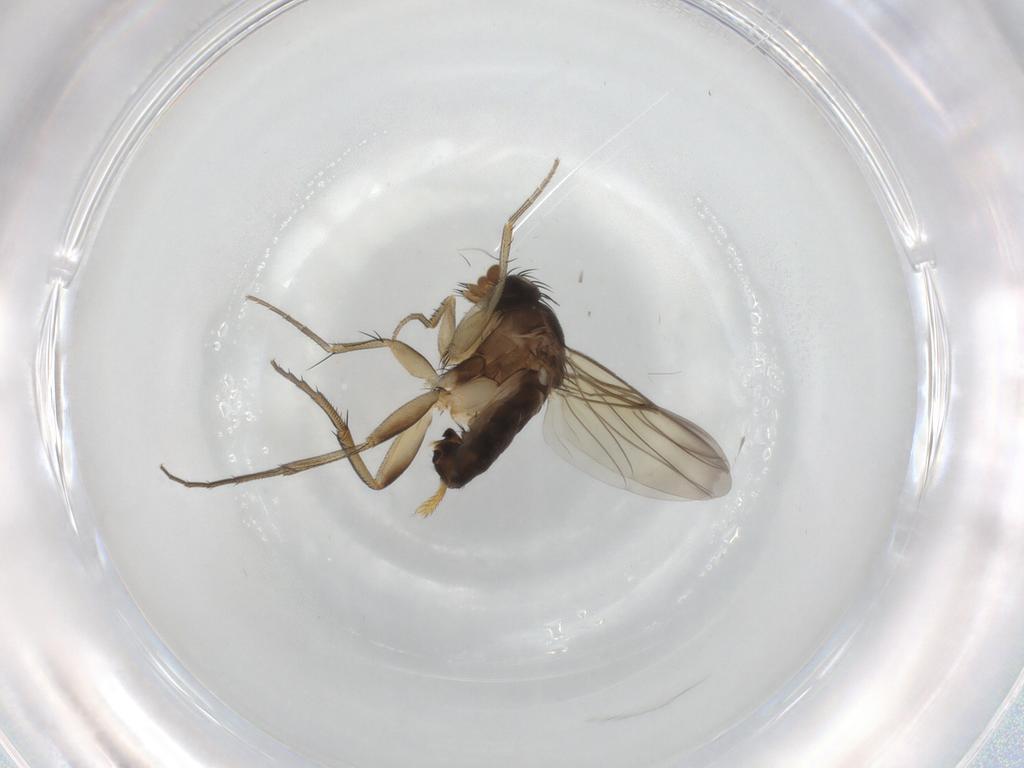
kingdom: Animalia
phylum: Arthropoda
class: Insecta
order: Diptera
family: Phoridae
